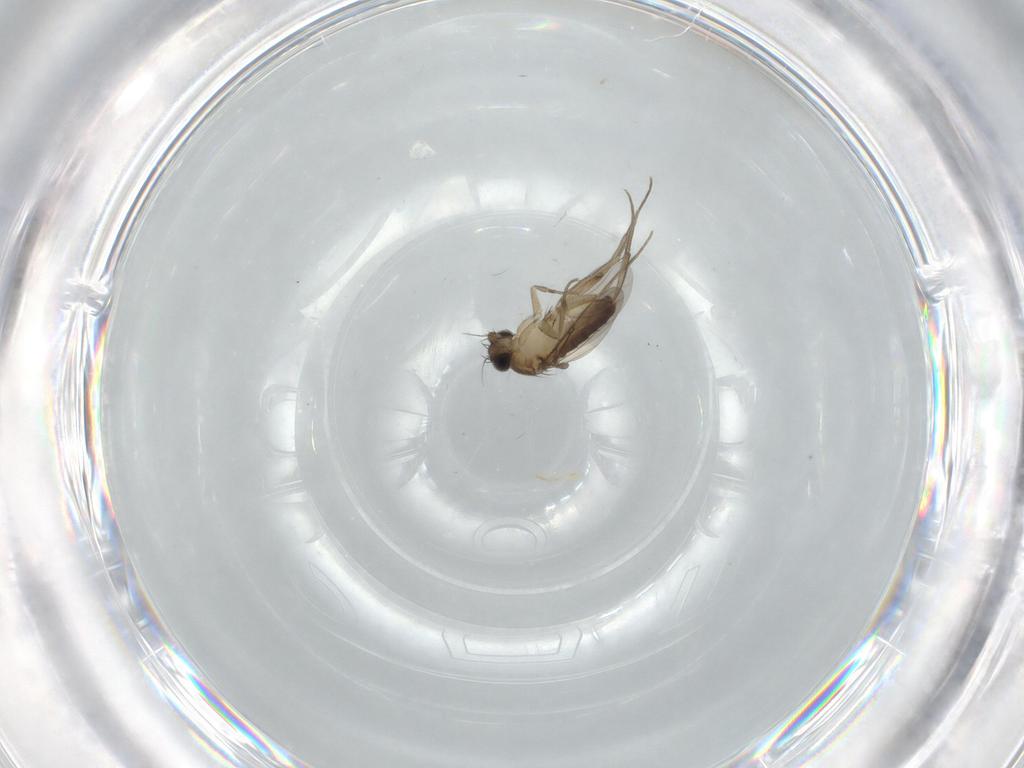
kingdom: Animalia
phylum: Arthropoda
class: Insecta
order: Diptera
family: Phoridae
